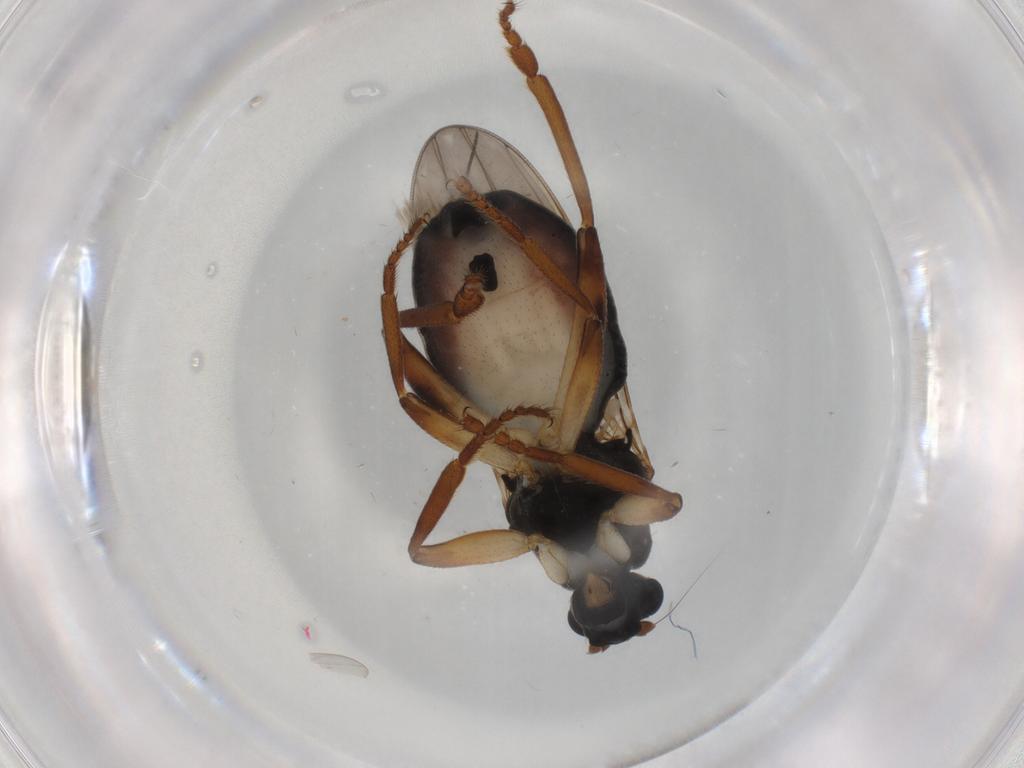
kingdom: Animalia
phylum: Arthropoda
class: Insecta
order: Diptera
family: Sphaeroceridae
